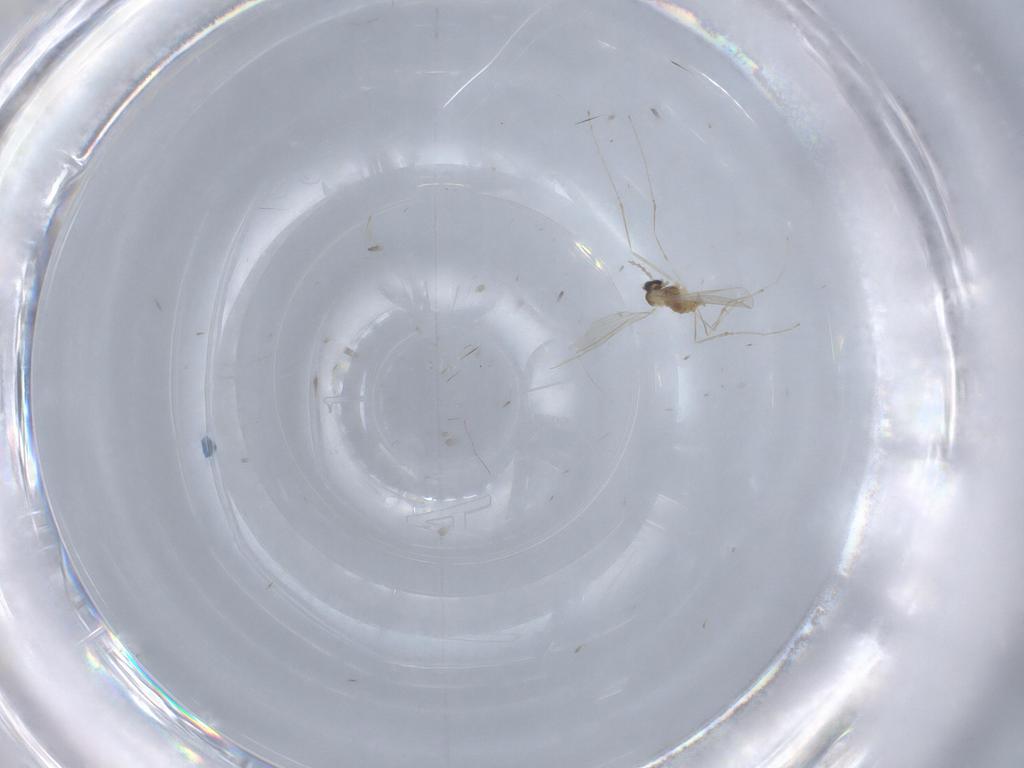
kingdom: Animalia
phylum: Arthropoda
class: Insecta
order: Diptera
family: Cecidomyiidae
